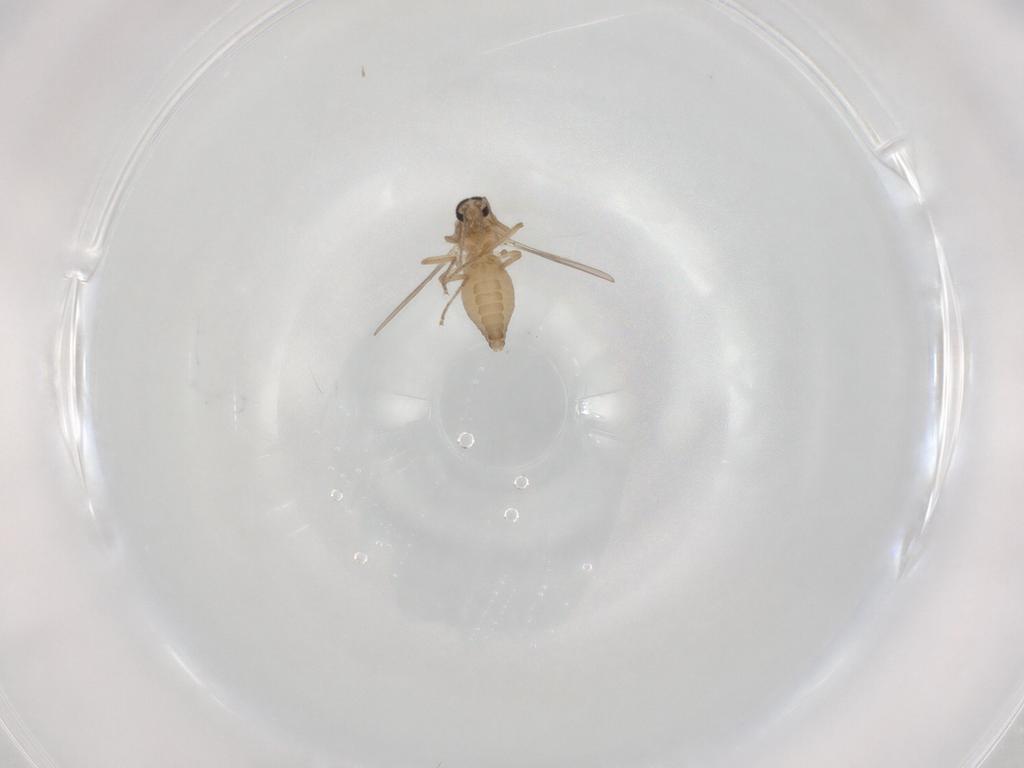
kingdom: Animalia
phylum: Arthropoda
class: Insecta
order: Diptera
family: Ceratopogonidae
